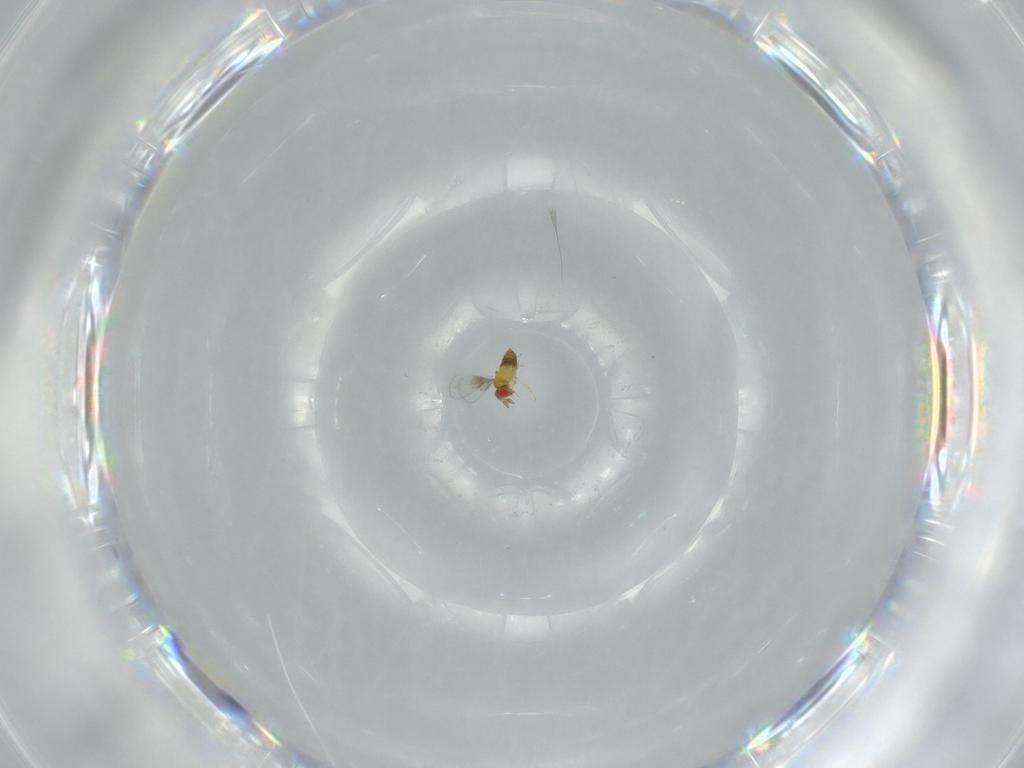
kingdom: Animalia
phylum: Arthropoda
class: Insecta
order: Hymenoptera
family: Trichogrammatidae
